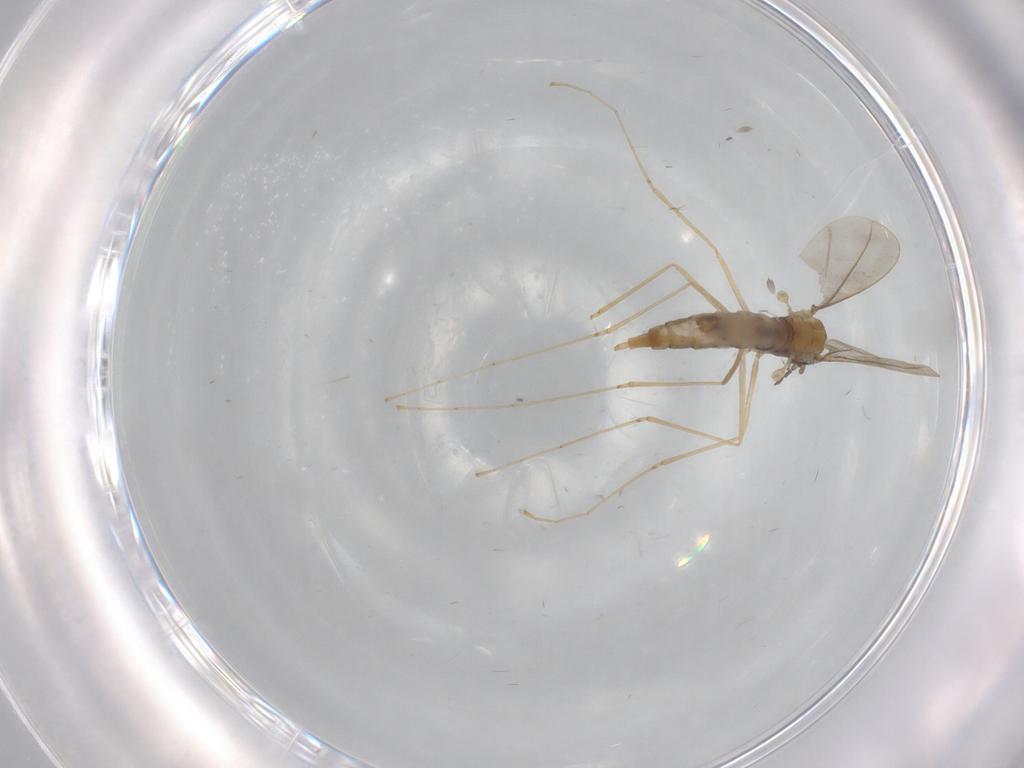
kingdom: Animalia
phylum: Arthropoda
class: Insecta
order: Diptera
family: Cecidomyiidae
